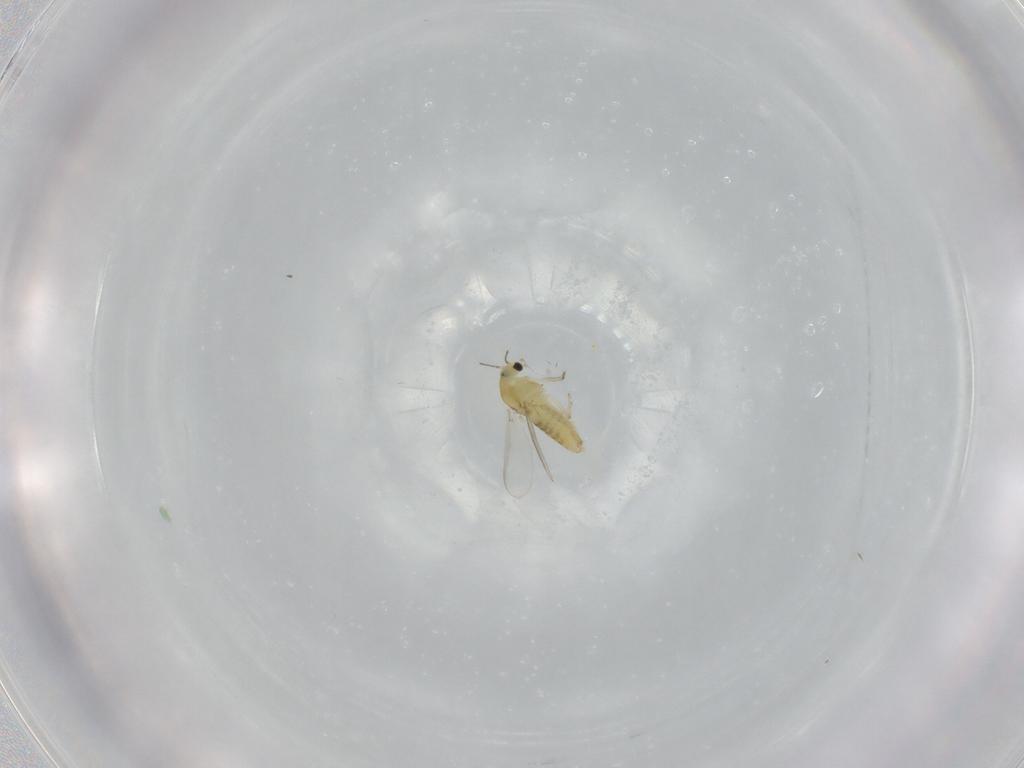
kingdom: Animalia
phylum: Arthropoda
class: Insecta
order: Diptera
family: Chironomidae
